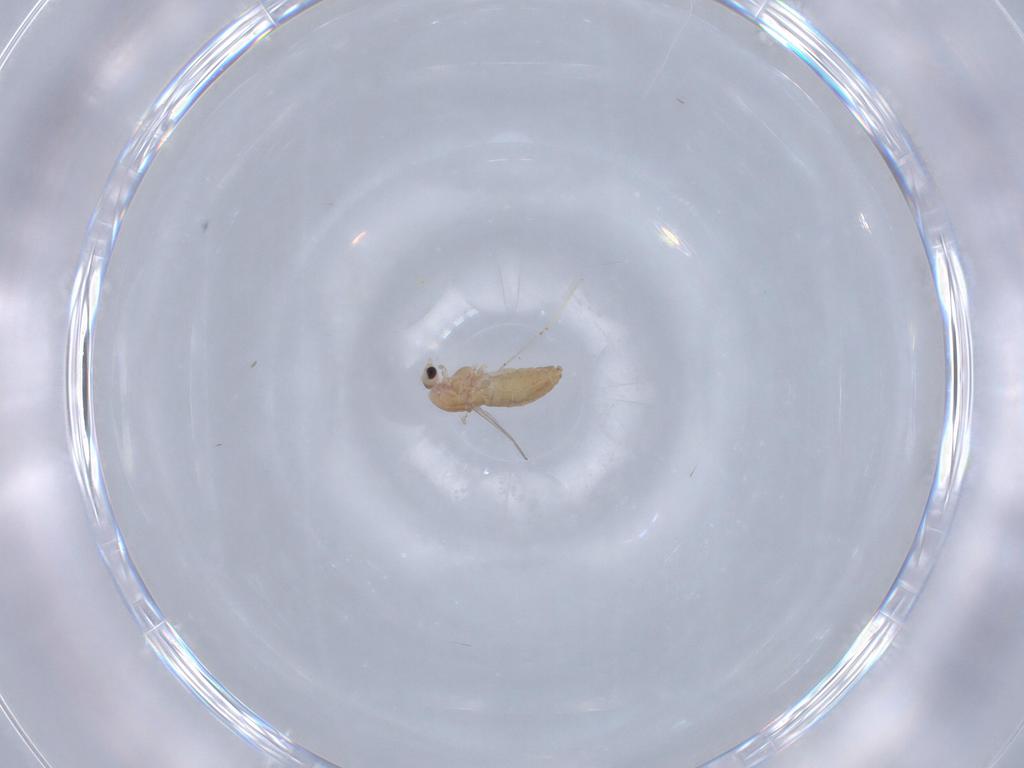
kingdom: Animalia
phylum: Arthropoda
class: Insecta
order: Diptera
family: Chironomidae
